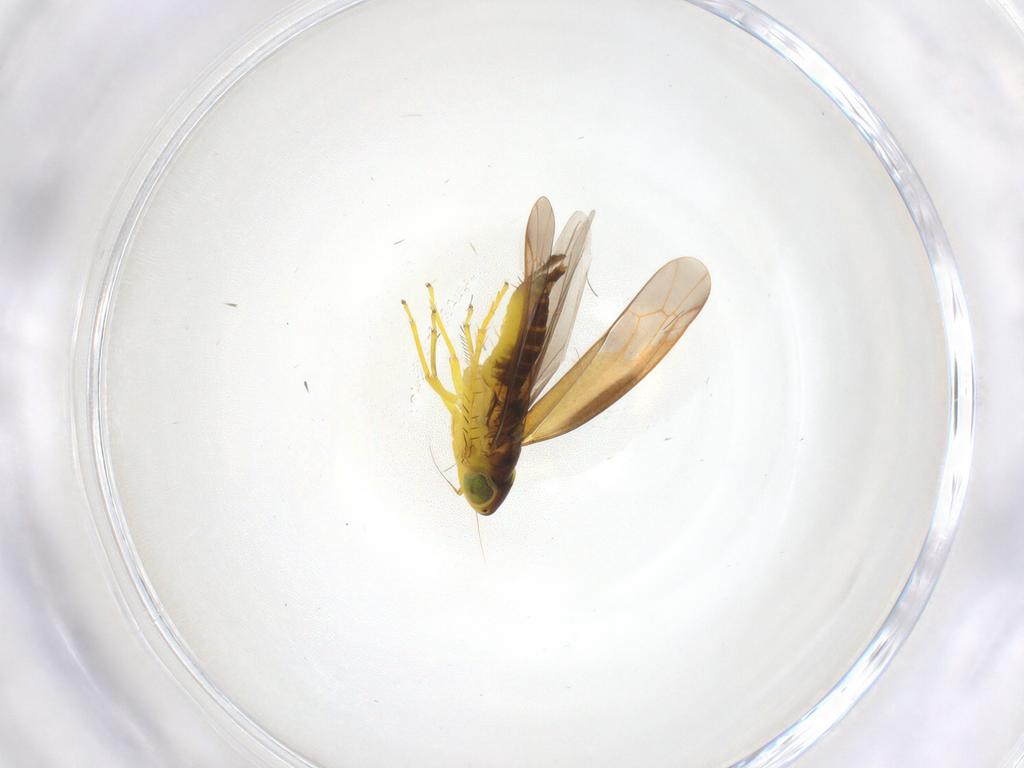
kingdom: Animalia
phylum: Arthropoda
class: Insecta
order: Hemiptera
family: Cicadellidae
